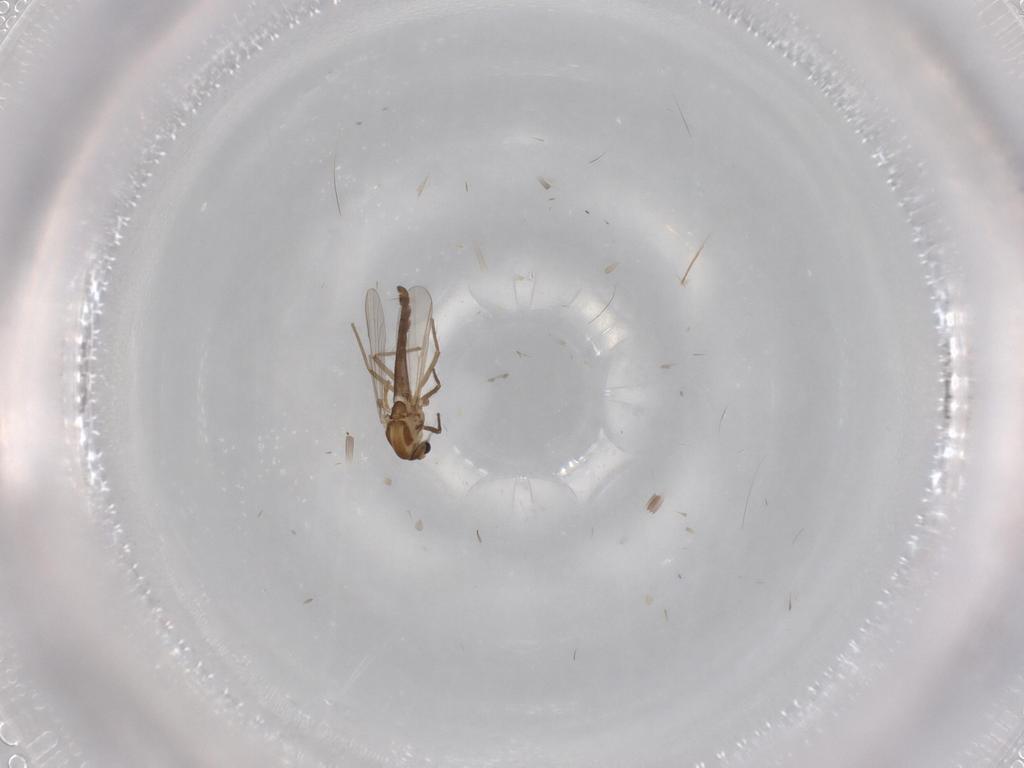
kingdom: Animalia
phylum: Arthropoda
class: Insecta
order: Diptera
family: Chironomidae
